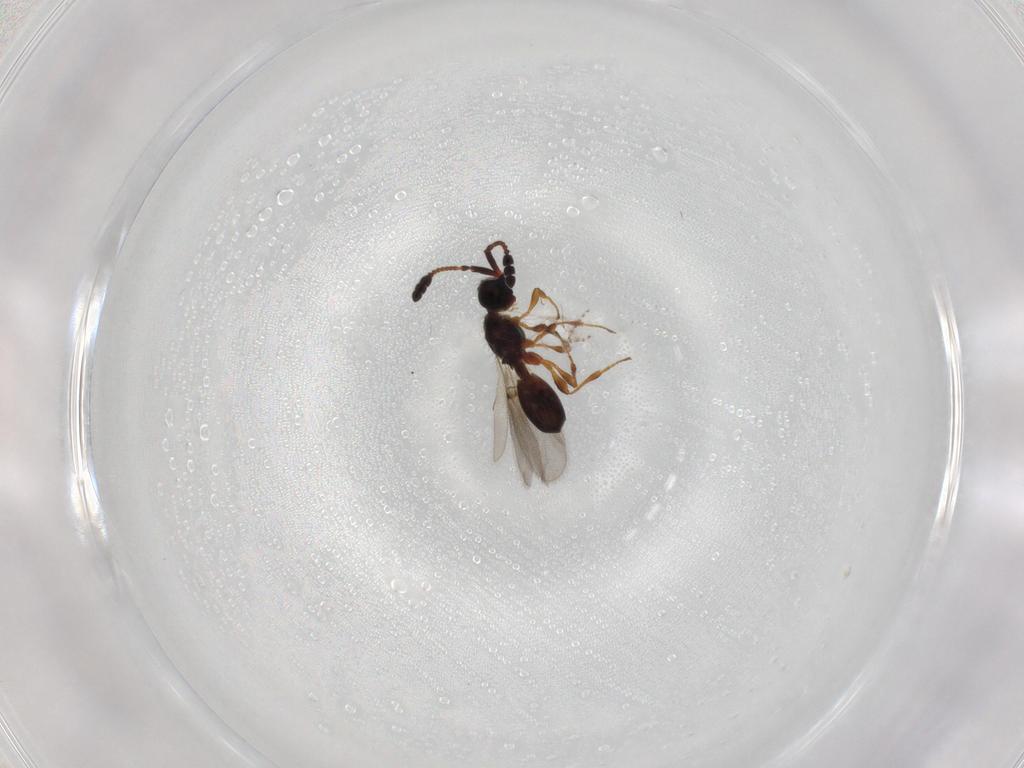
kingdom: Animalia
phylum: Arthropoda
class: Insecta
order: Hymenoptera
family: Diapriidae
